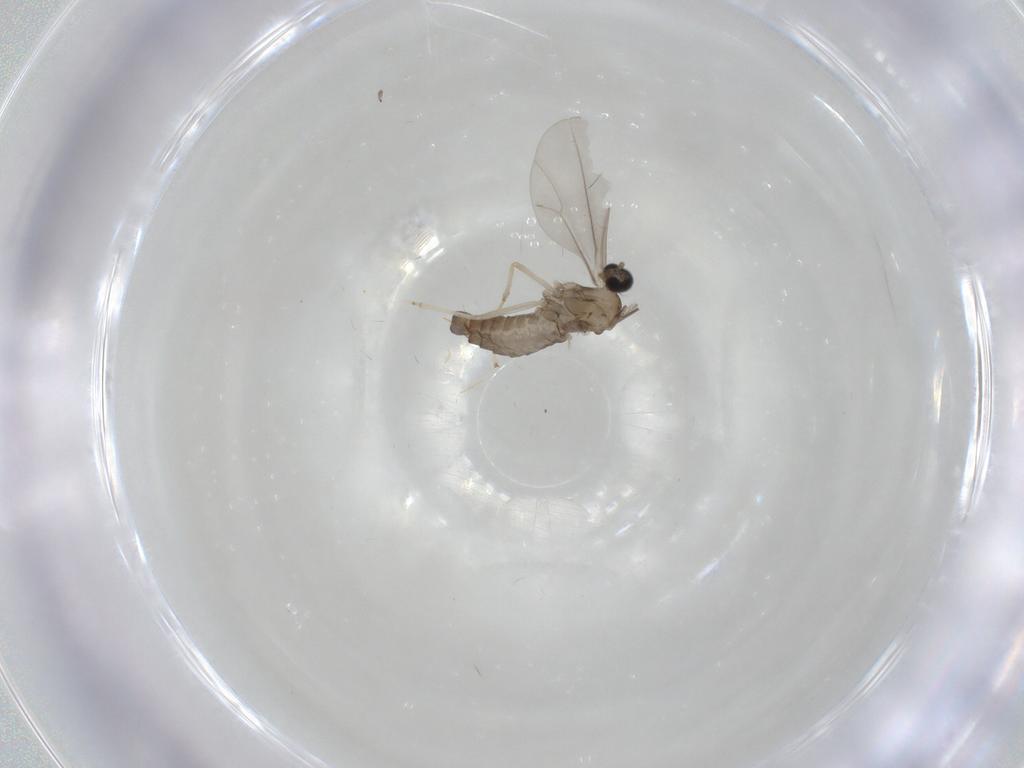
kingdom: Animalia
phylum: Arthropoda
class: Insecta
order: Diptera
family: Cecidomyiidae
